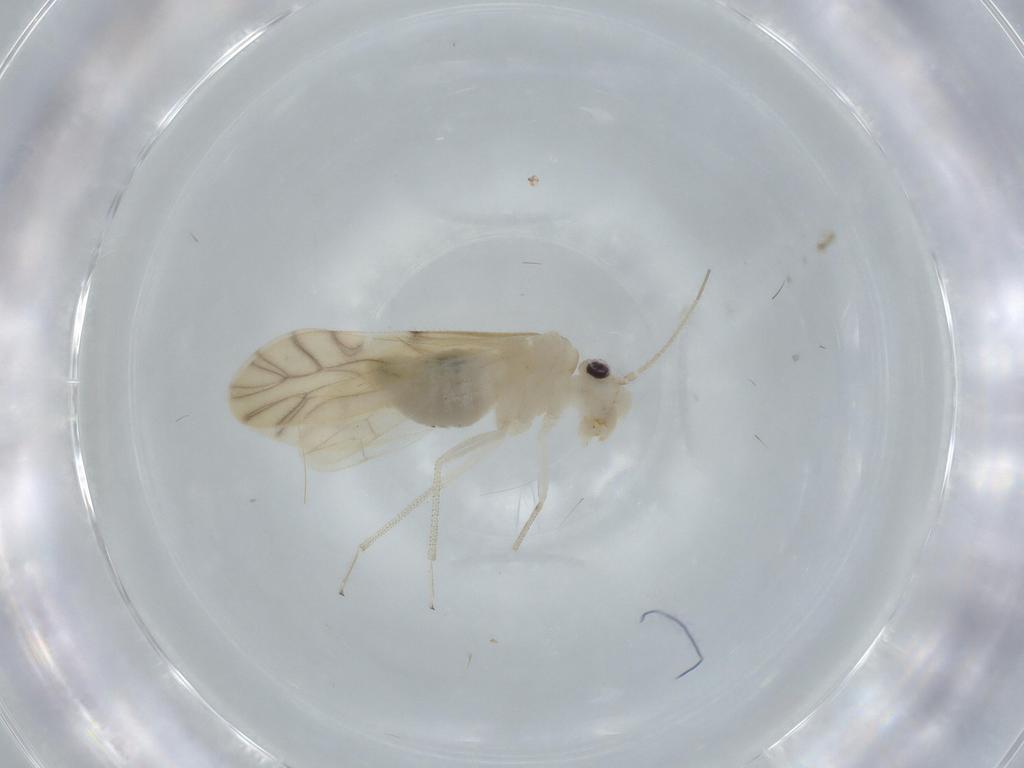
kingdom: Animalia
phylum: Arthropoda
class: Insecta
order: Psocodea
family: Caeciliusidae
